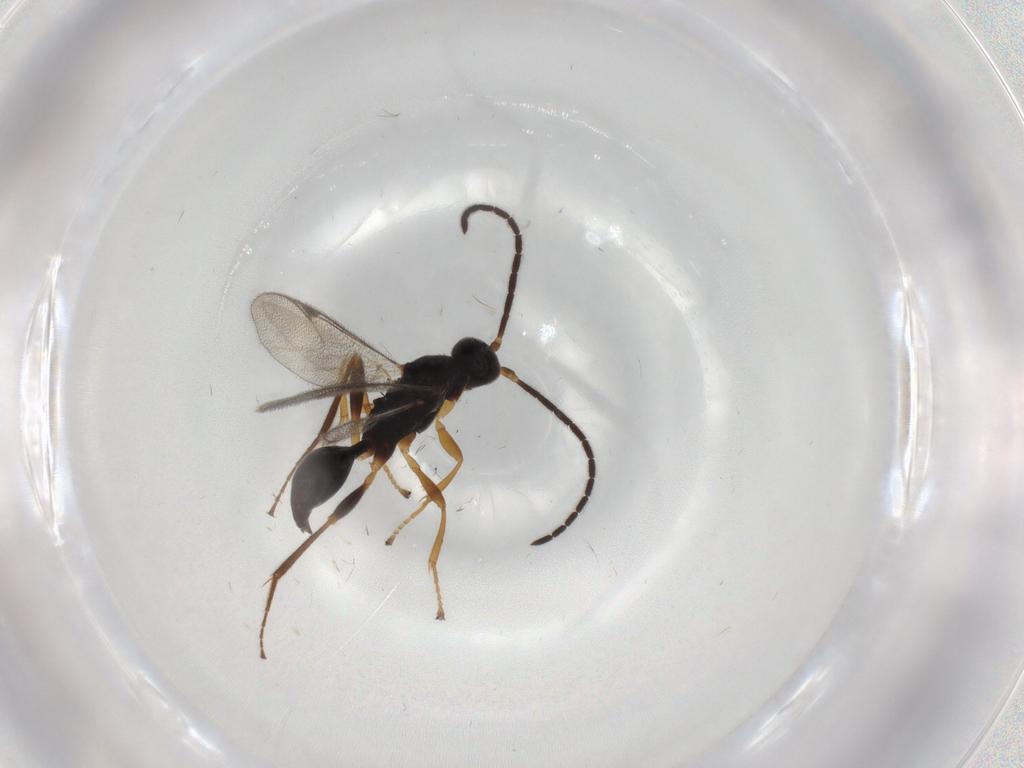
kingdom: Animalia
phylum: Arthropoda
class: Insecta
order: Hymenoptera
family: Proctotrupidae
